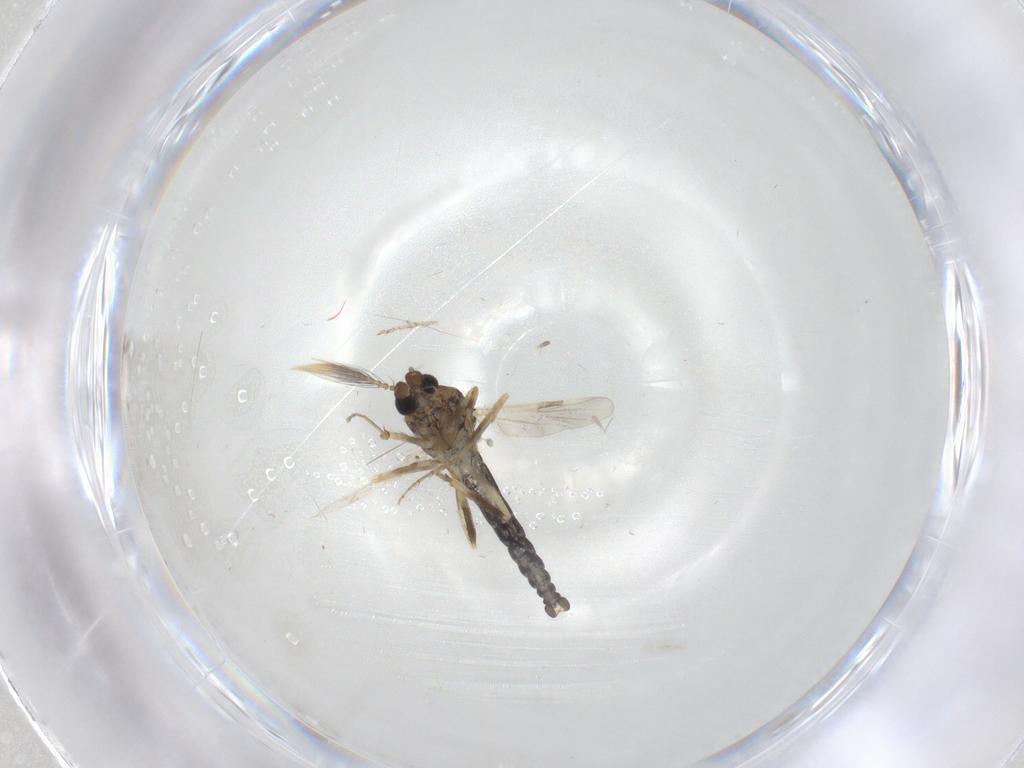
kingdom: Animalia
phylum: Arthropoda
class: Insecta
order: Diptera
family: Ceratopogonidae
